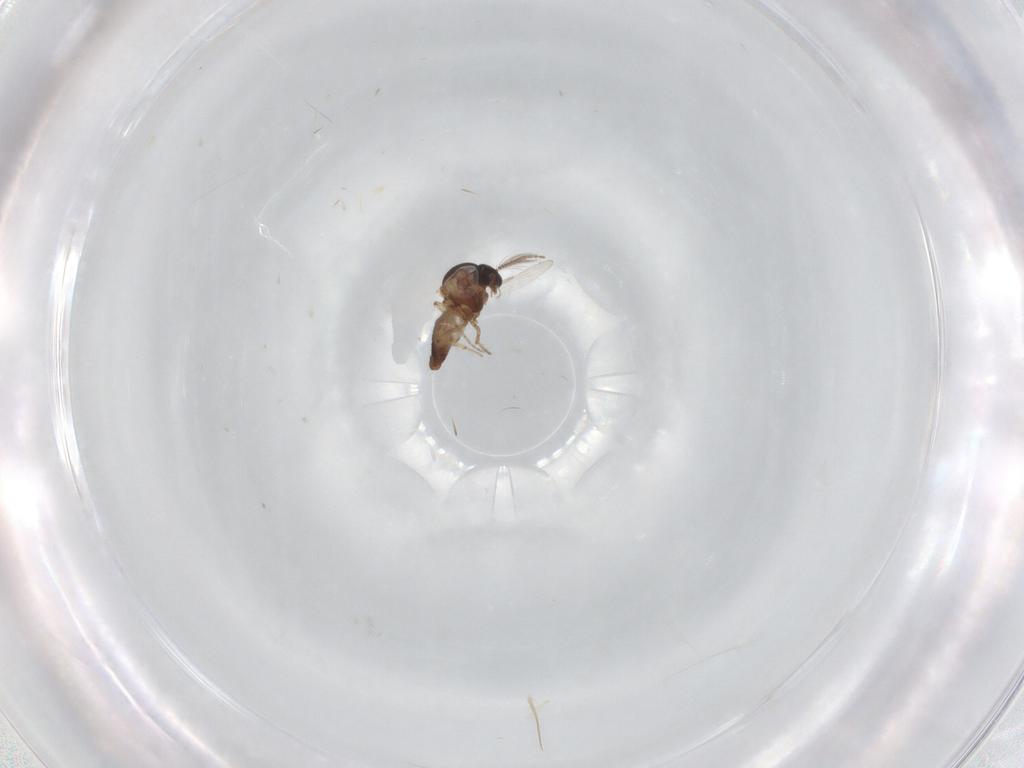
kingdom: Animalia
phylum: Arthropoda
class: Insecta
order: Diptera
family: Ceratopogonidae
